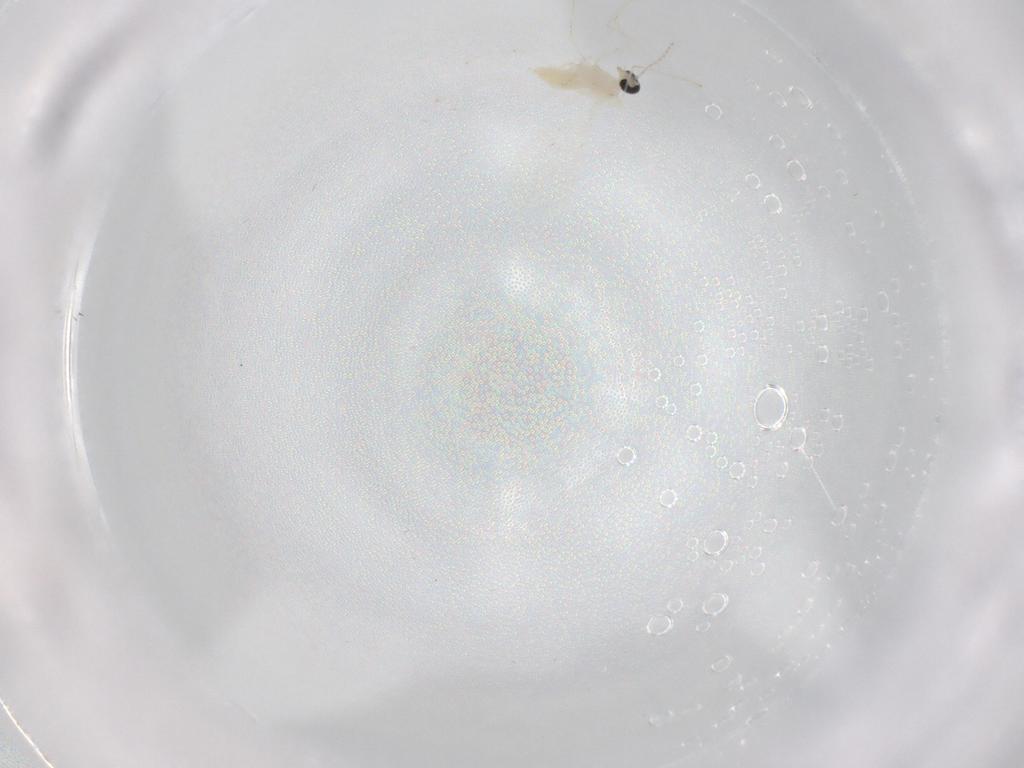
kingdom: Animalia
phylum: Arthropoda
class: Insecta
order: Diptera
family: Cecidomyiidae
